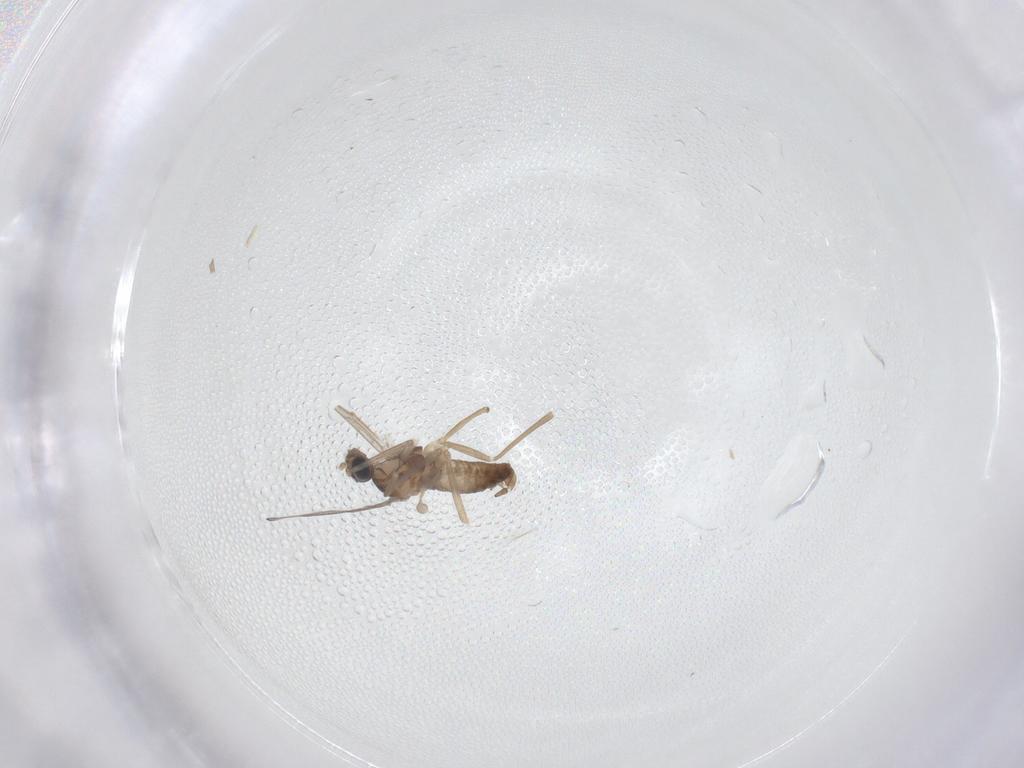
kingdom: Animalia
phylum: Arthropoda
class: Insecta
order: Diptera
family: Cecidomyiidae
